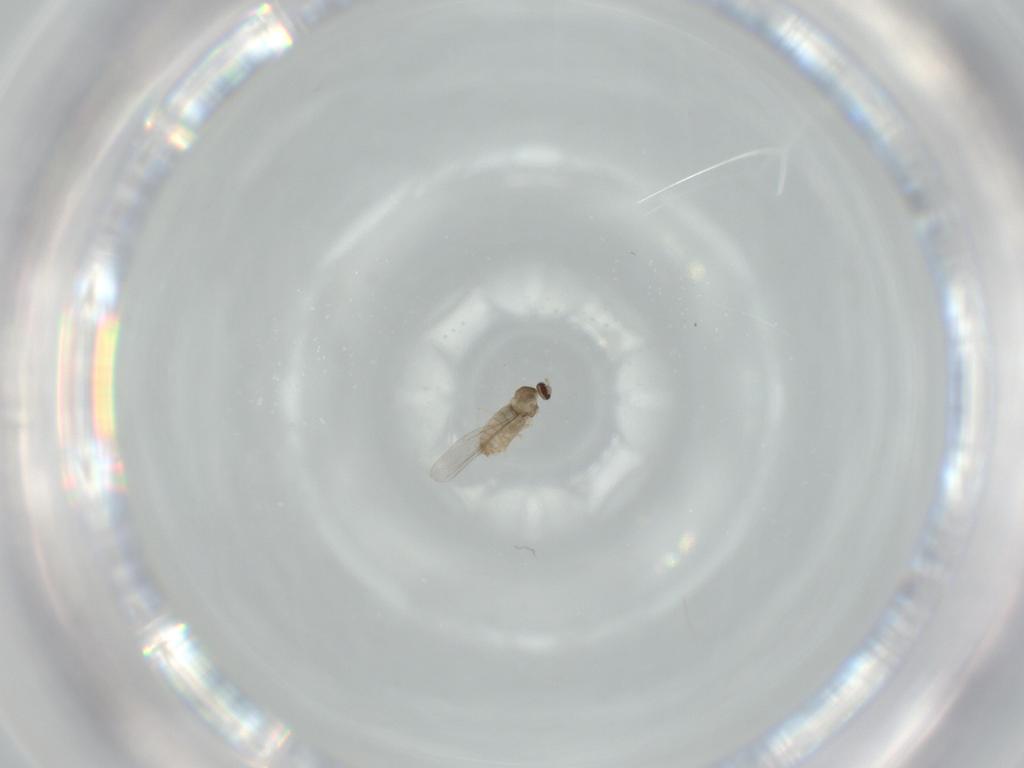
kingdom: Animalia
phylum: Arthropoda
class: Insecta
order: Diptera
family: Cecidomyiidae
